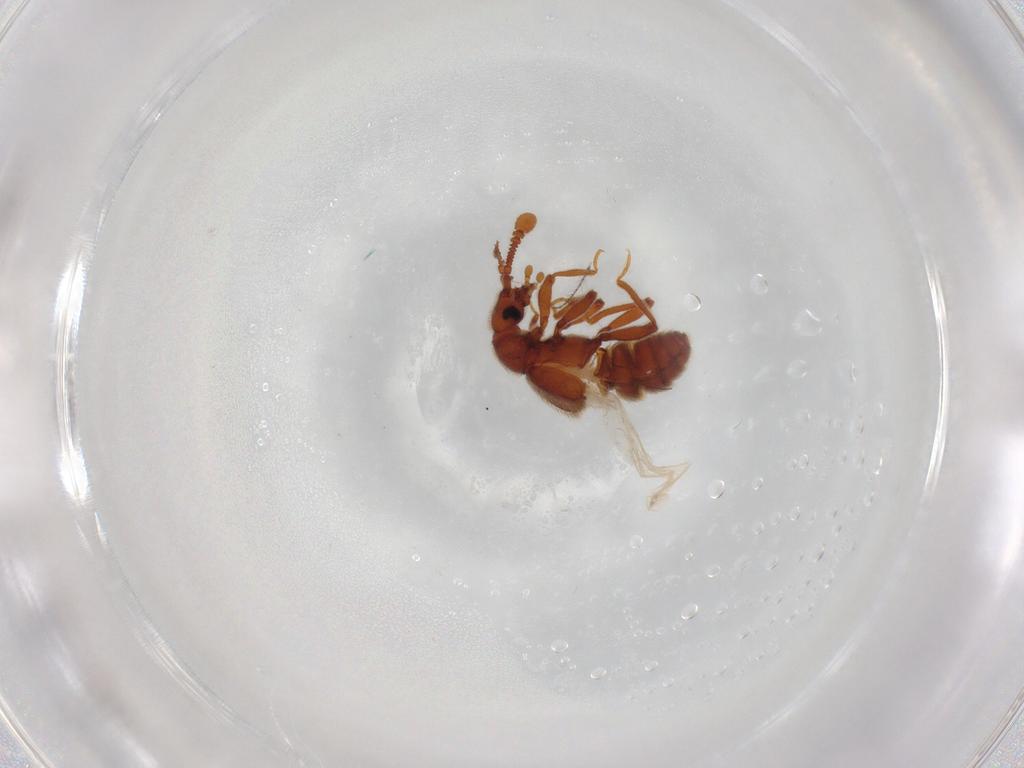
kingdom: Animalia
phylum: Arthropoda
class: Insecta
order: Coleoptera
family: Staphylinidae
